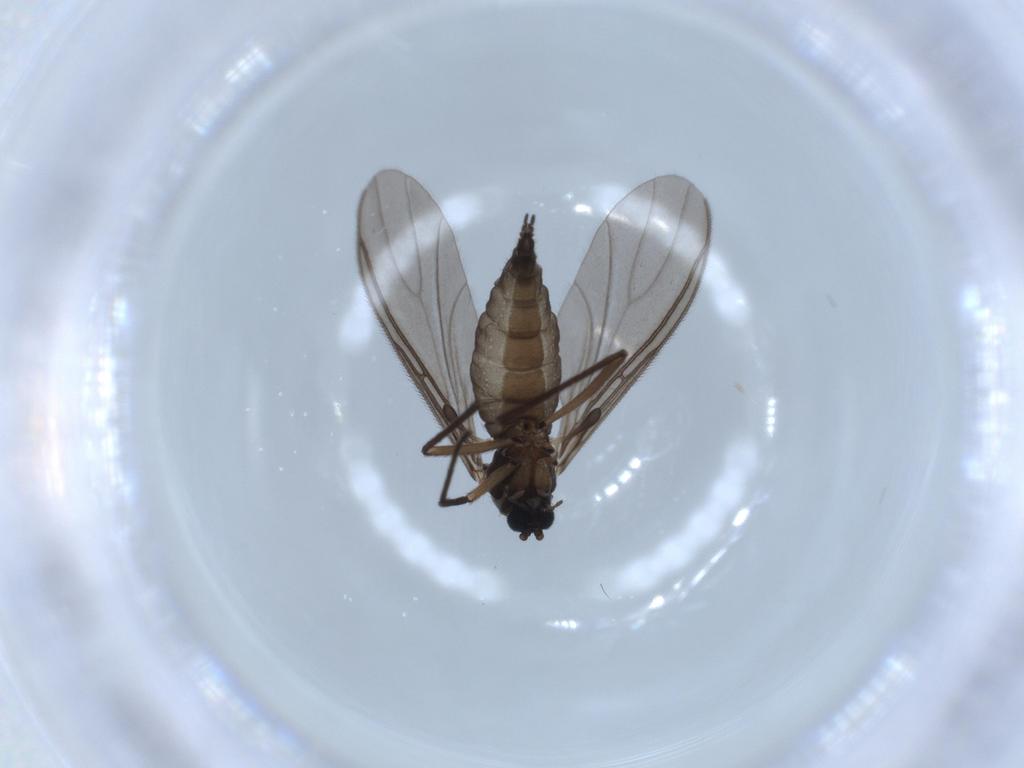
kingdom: Animalia
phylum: Arthropoda
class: Insecta
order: Diptera
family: Sciaridae
